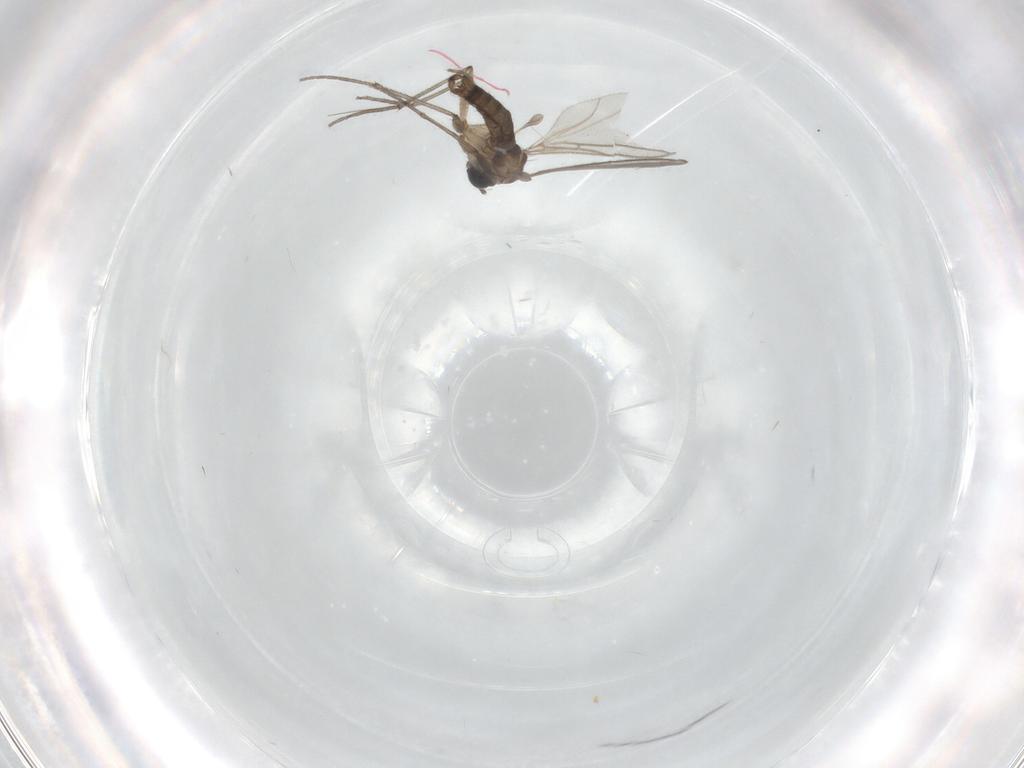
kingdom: Animalia
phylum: Arthropoda
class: Insecta
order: Diptera
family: Sciaridae
